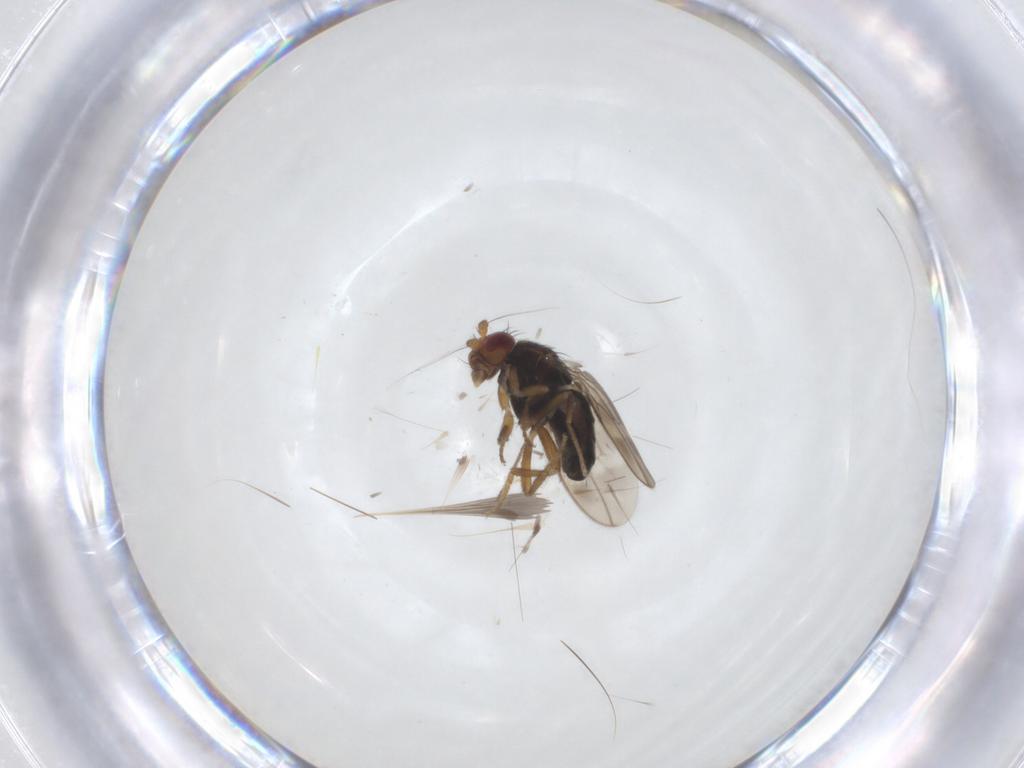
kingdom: Animalia
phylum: Arthropoda
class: Insecta
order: Diptera
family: Sphaeroceridae
